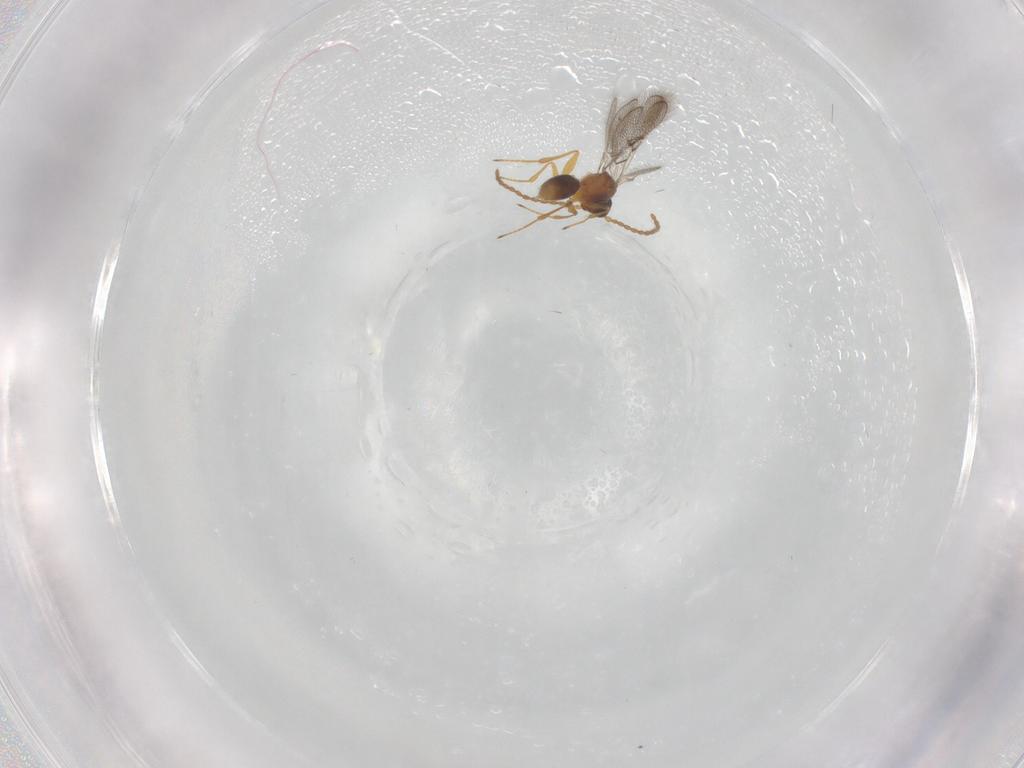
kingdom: Animalia
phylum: Arthropoda
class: Insecta
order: Hymenoptera
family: Figitidae
